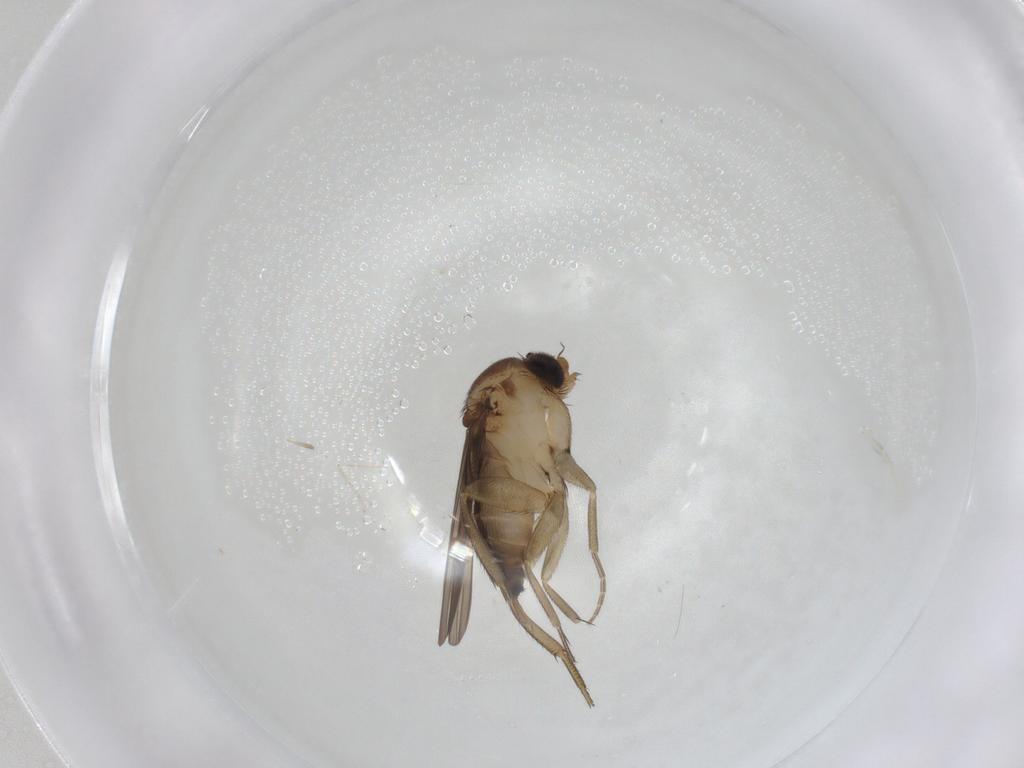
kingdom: Animalia
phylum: Arthropoda
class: Insecta
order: Diptera
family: Phoridae
